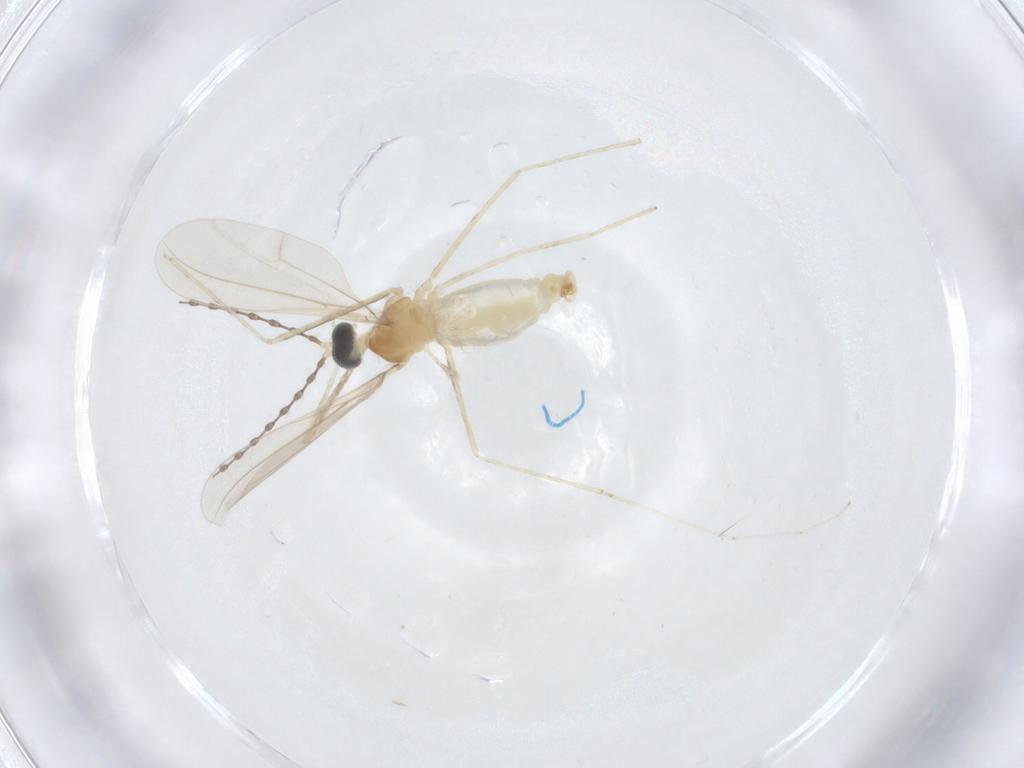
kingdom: Animalia
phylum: Arthropoda
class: Insecta
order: Diptera
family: Cecidomyiidae
